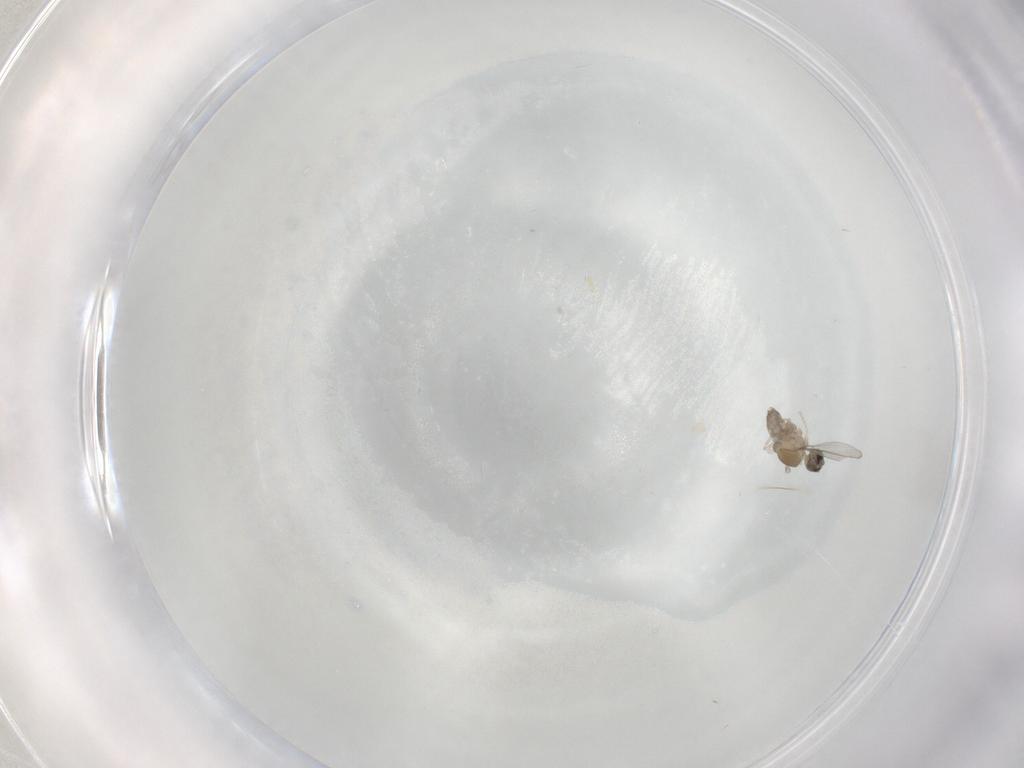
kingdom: Animalia
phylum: Arthropoda
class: Insecta
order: Diptera
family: Cecidomyiidae
